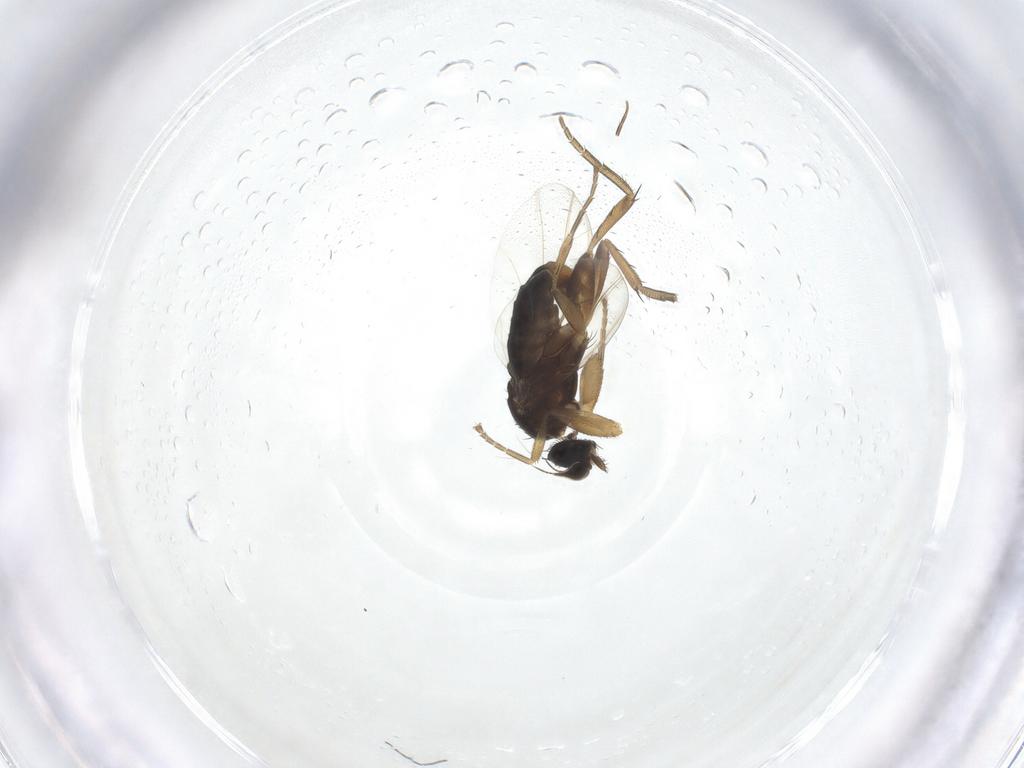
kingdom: Animalia
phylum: Arthropoda
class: Insecta
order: Diptera
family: Phoridae
